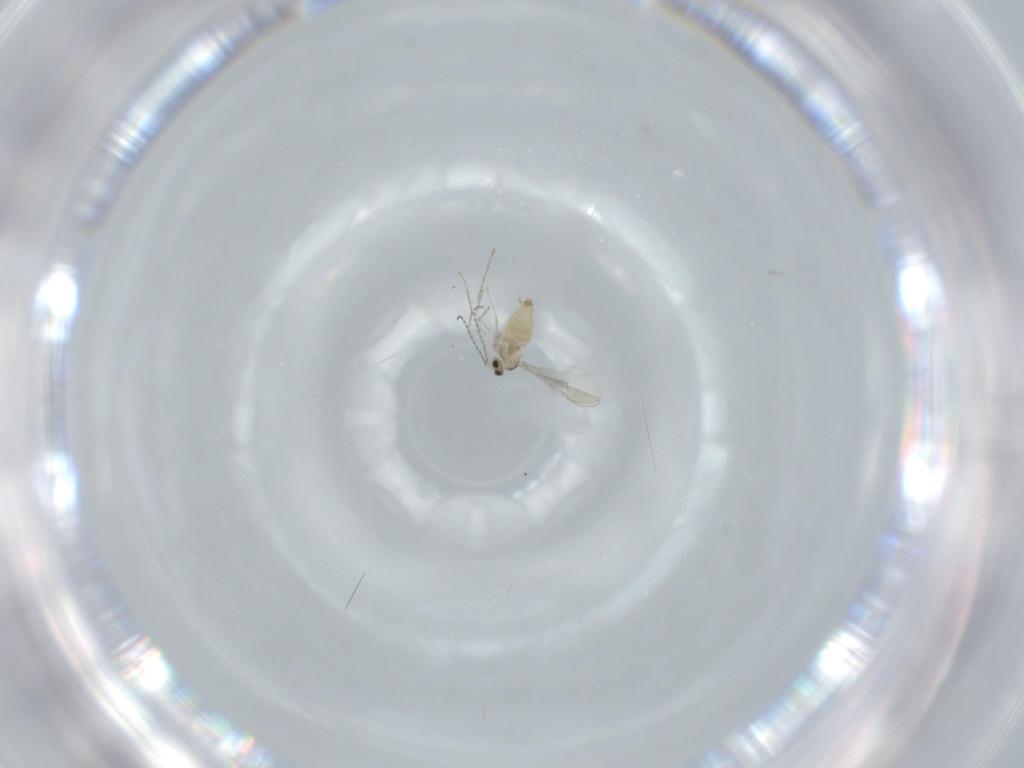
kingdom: Animalia
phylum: Arthropoda
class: Insecta
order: Diptera
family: Cecidomyiidae
